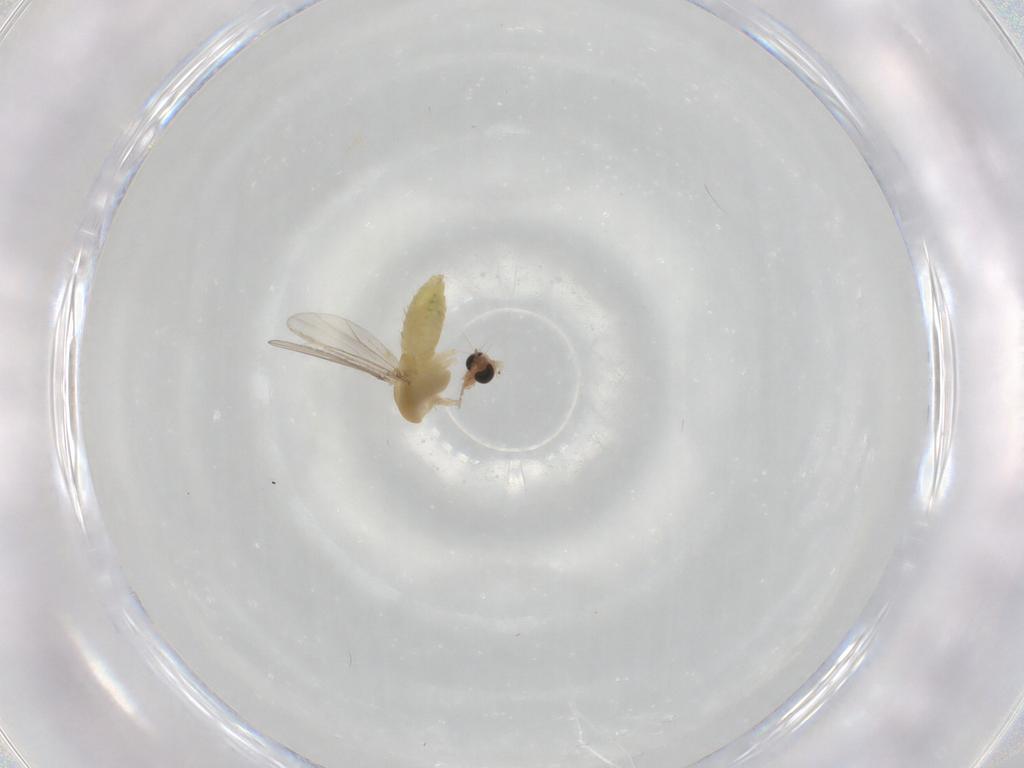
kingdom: Animalia
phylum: Arthropoda
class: Insecta
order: Diptera
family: Chironomidae
